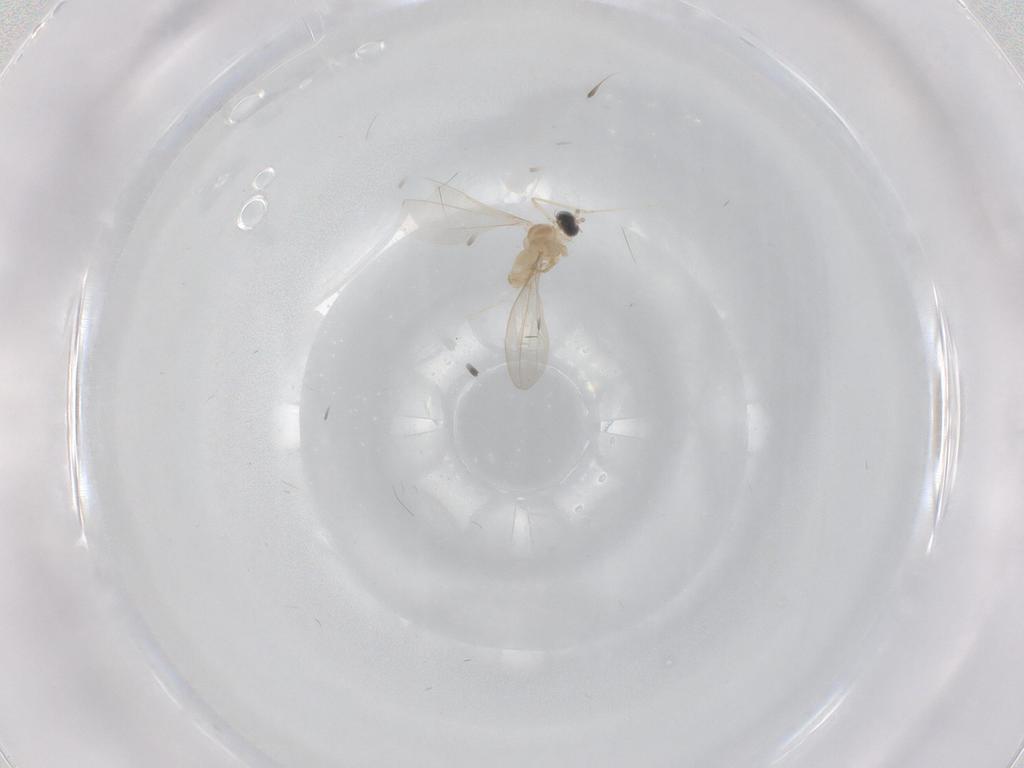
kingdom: Animalia
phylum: Arthropoda
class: Insecta
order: Diptera
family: Cecidomyiidae
